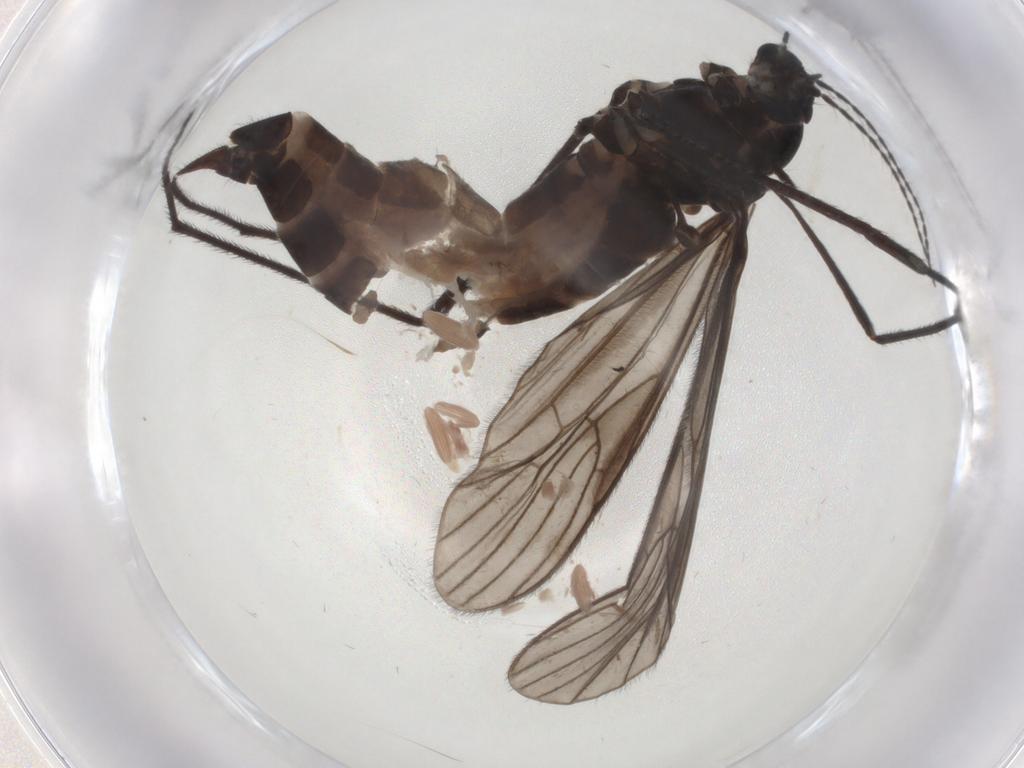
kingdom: Animalia
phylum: Arthropoda
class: Insecta
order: Diptera
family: Limoniidae
